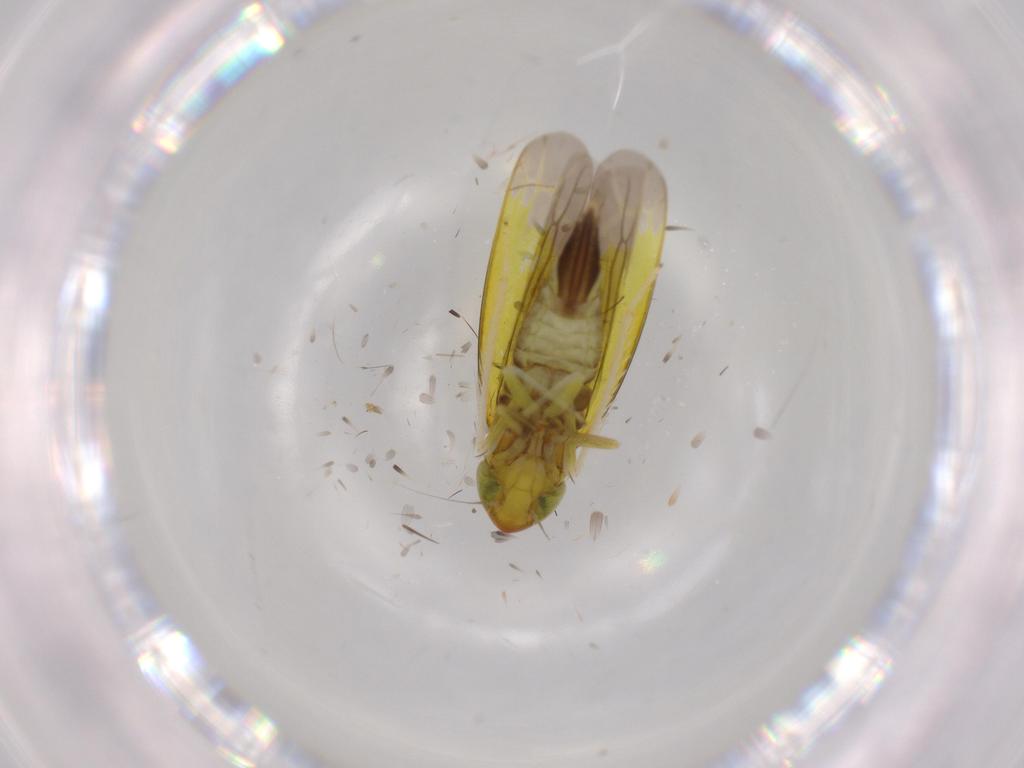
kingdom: Animalia
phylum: Arthropoda
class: Insecta
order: Hemiptera
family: Cicadellidae
